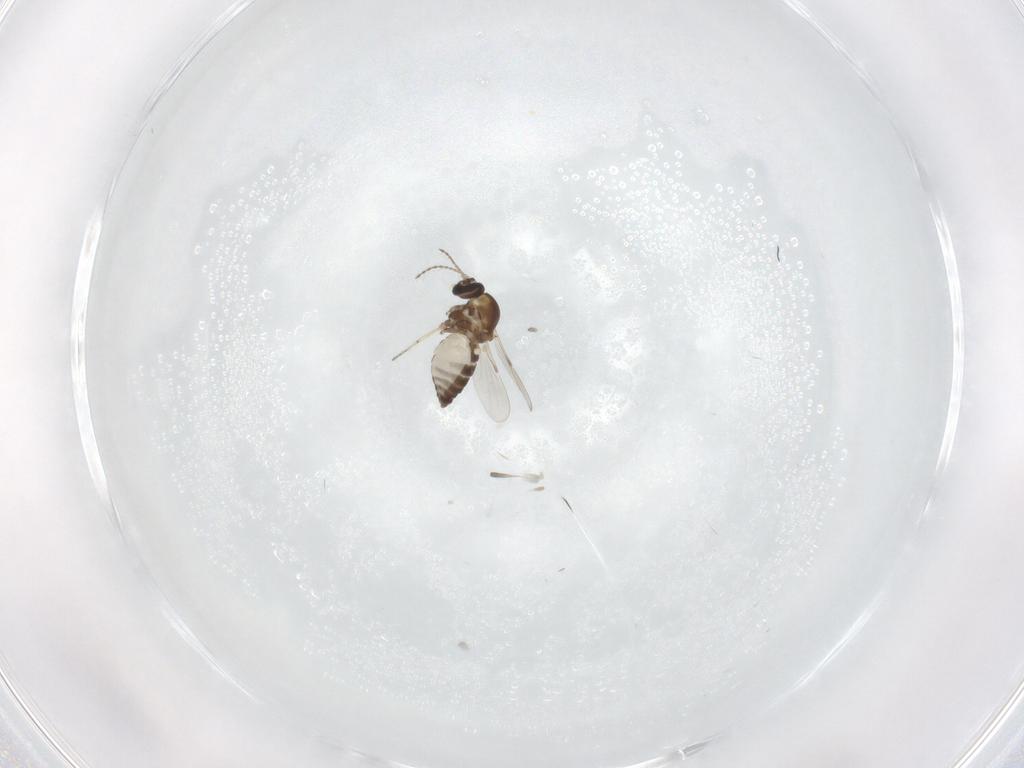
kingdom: Animalia
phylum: Arthropoda
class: Insecta
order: Diptera
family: Ceratopogonidae
